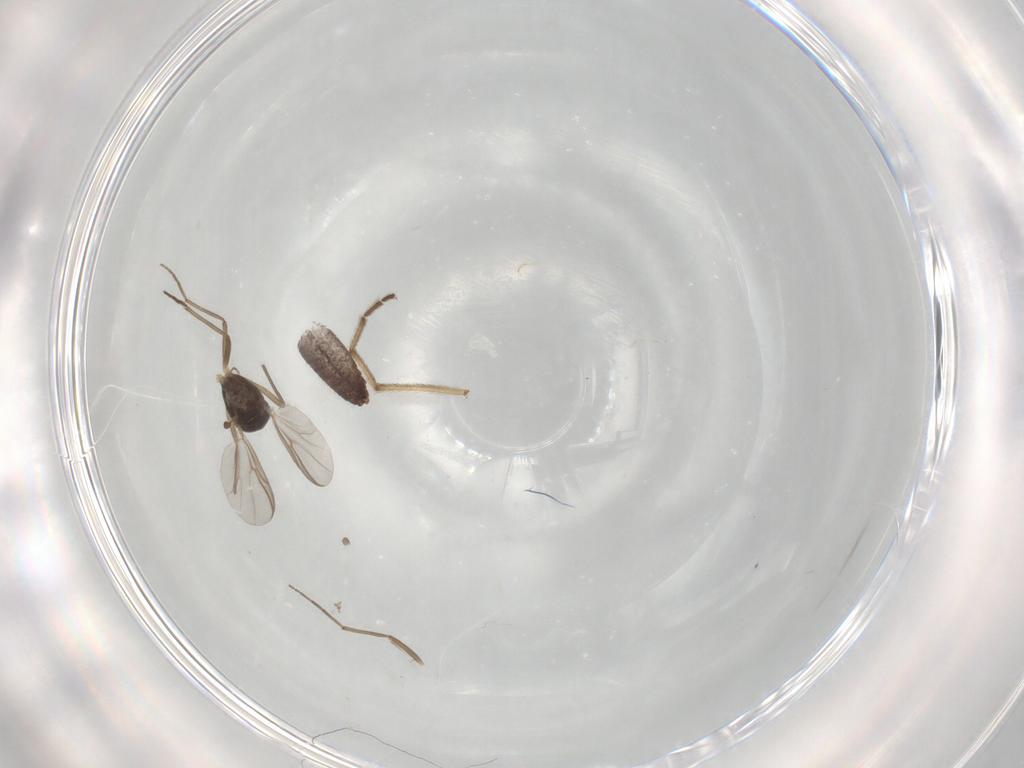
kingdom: Animalia
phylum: Arthropoda
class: Insecta
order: Diptera
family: Chironomidae
